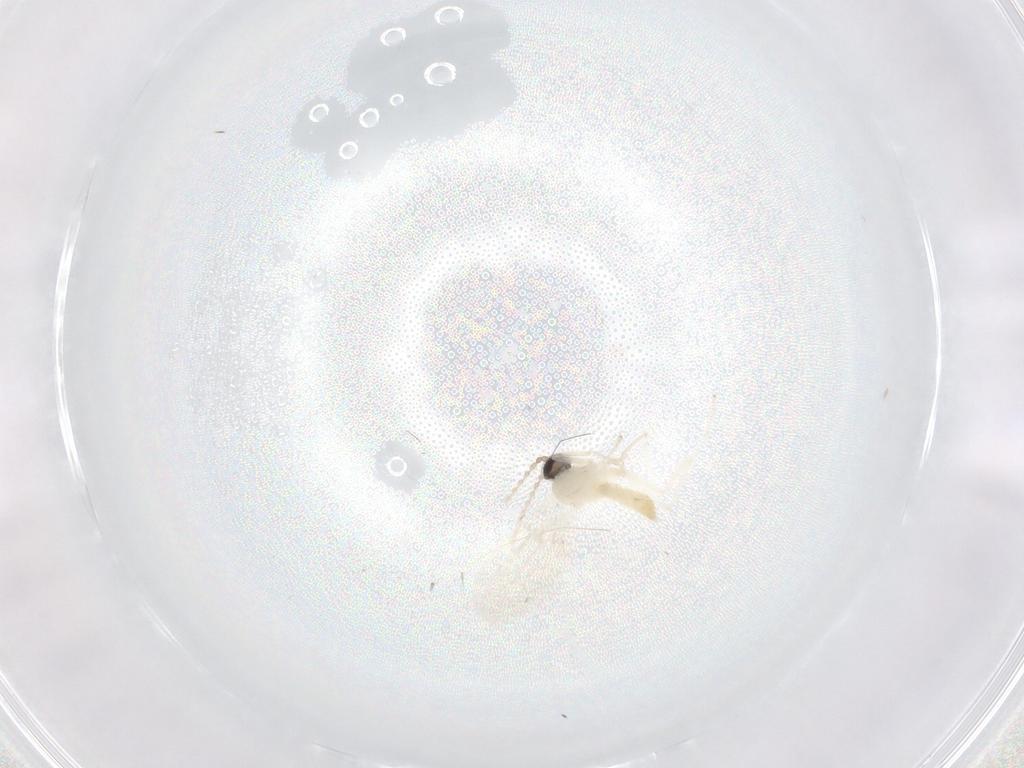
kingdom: Animalia
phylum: Arthropoda
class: Insecta
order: Diptera
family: Cecidomyiidae
